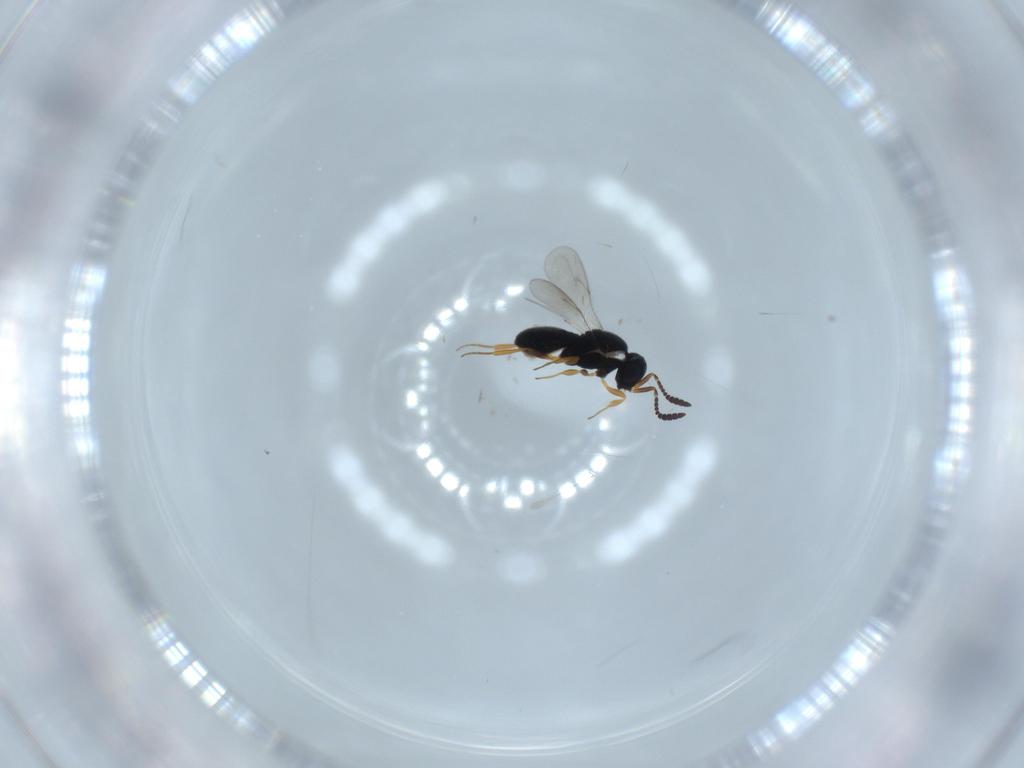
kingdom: Animalia
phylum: Arthropoda
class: Insecta
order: Hymenoptera
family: Scelionidae
